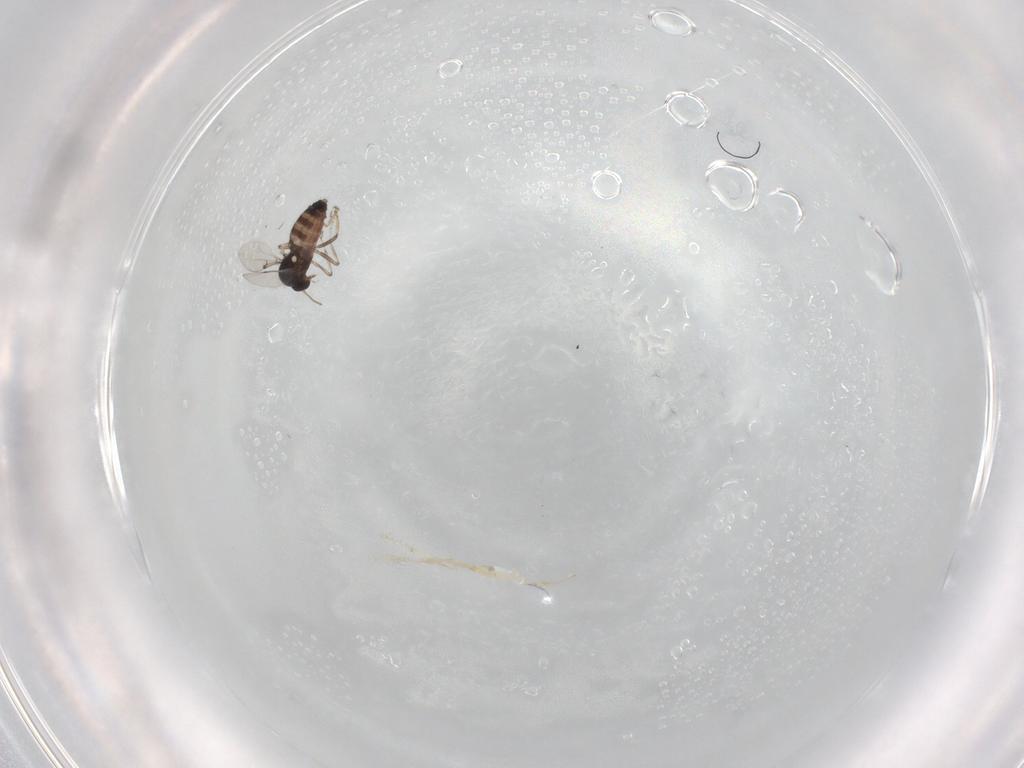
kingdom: Animalia
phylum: Arthropoda
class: Insecta
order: Diptera
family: Ceratopogonidae
